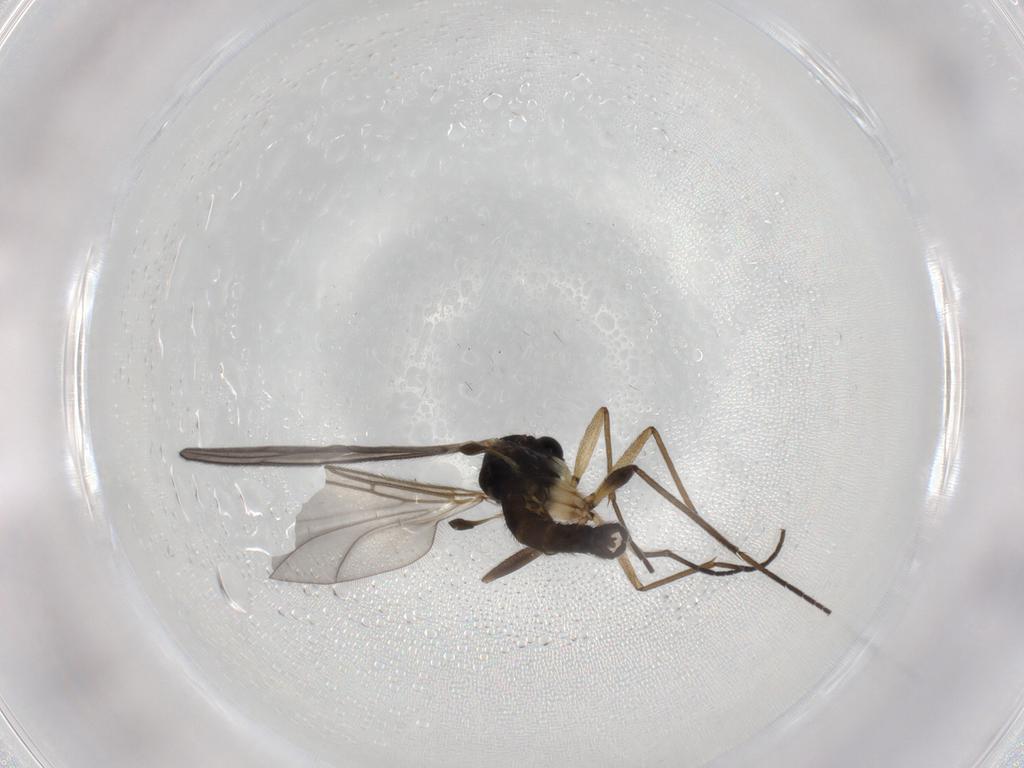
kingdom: Animalia
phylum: Arthropoda
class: Insecta
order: Diptera
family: Sciaridae
